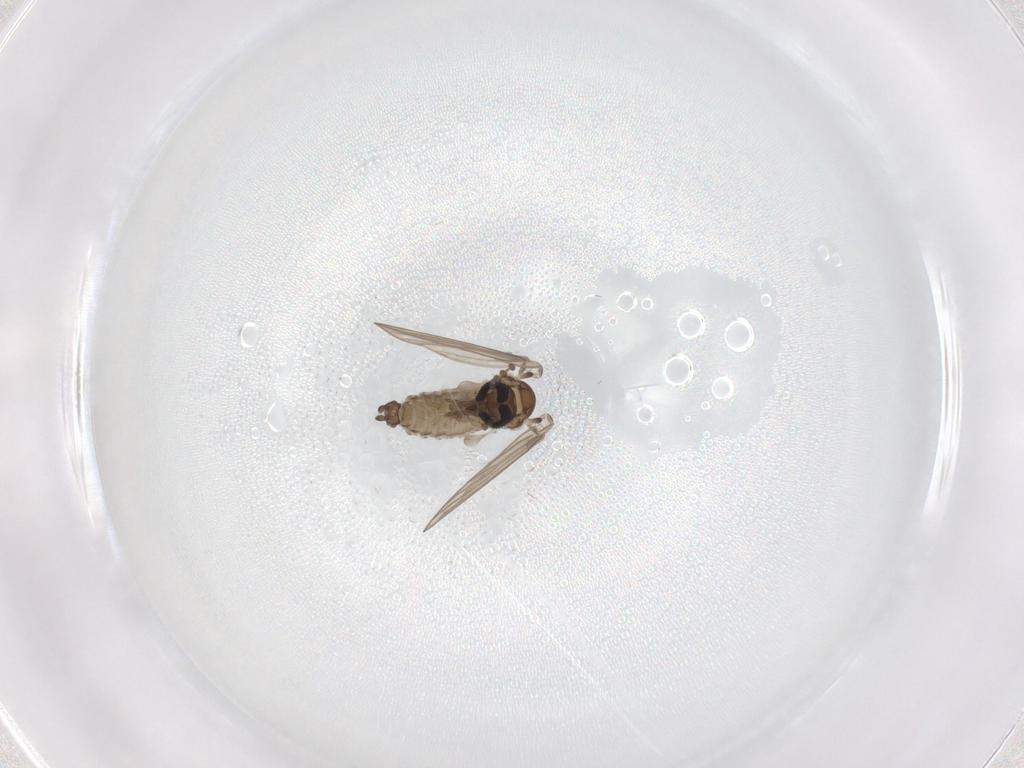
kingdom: Animalia
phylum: Arthropoda
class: Insecta
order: Diptera
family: Psychodidae
